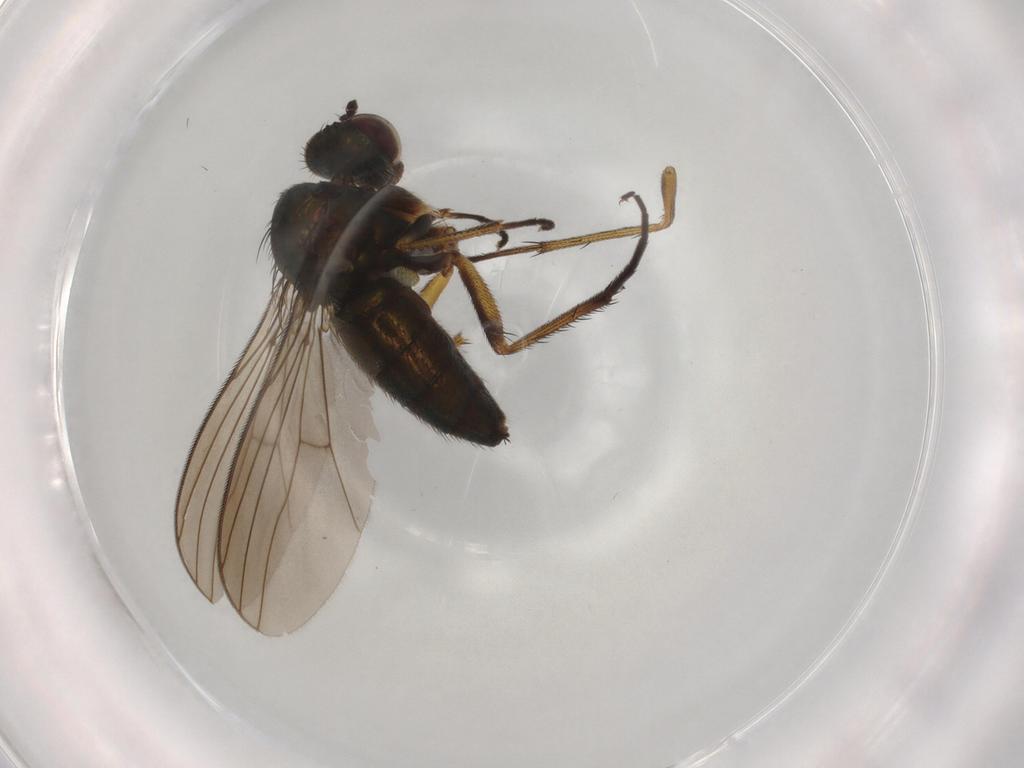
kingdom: Animalia
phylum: Arthropoda
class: Insecta
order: Diptera
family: Dolichopodidae
